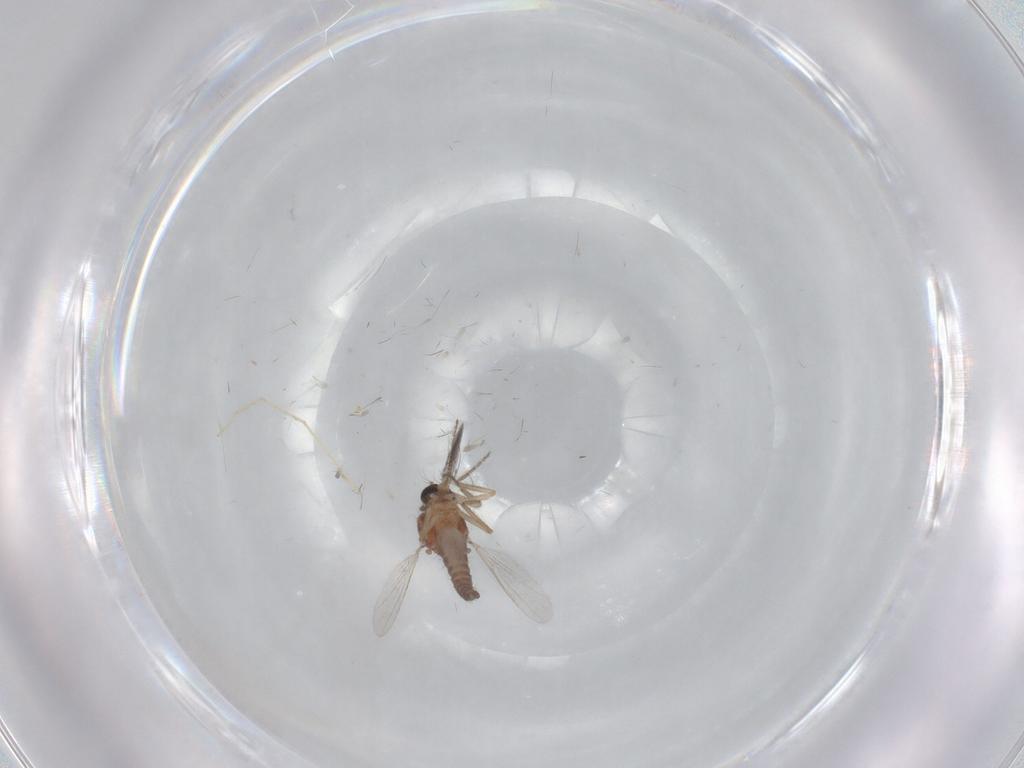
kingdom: Animalia
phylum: Arthropoda
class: Insecta
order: Diptera
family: Ceratopogonidae
